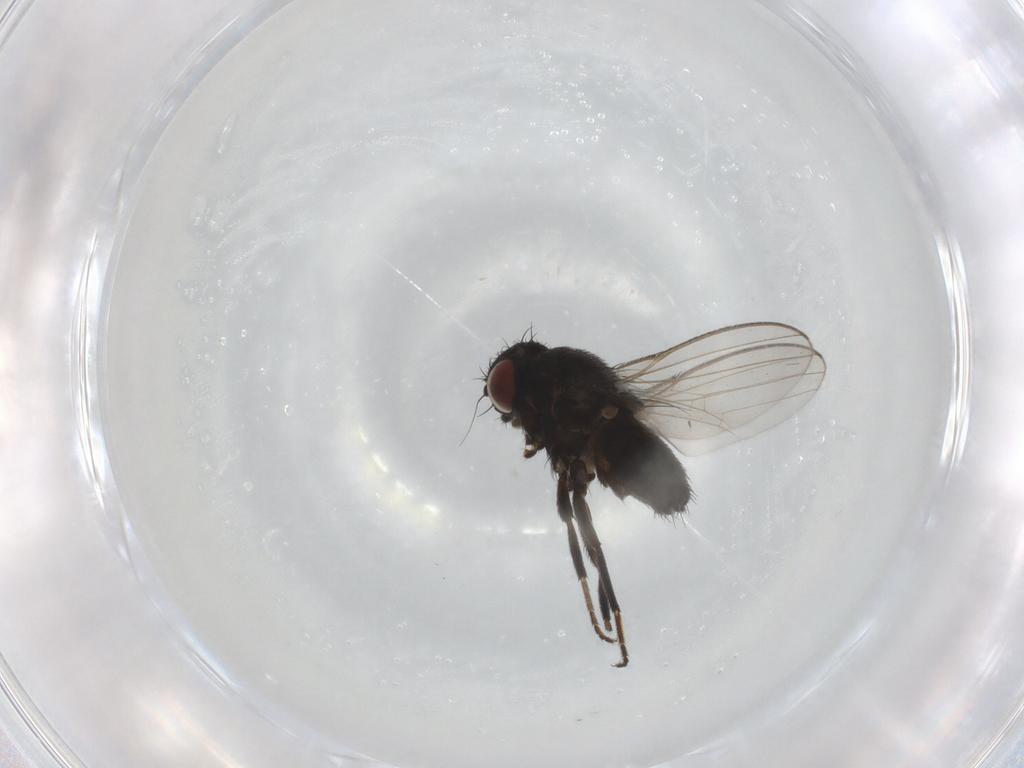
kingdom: Animalia
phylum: Arthropoda
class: Insecta
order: Diptera
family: Milichiidae
